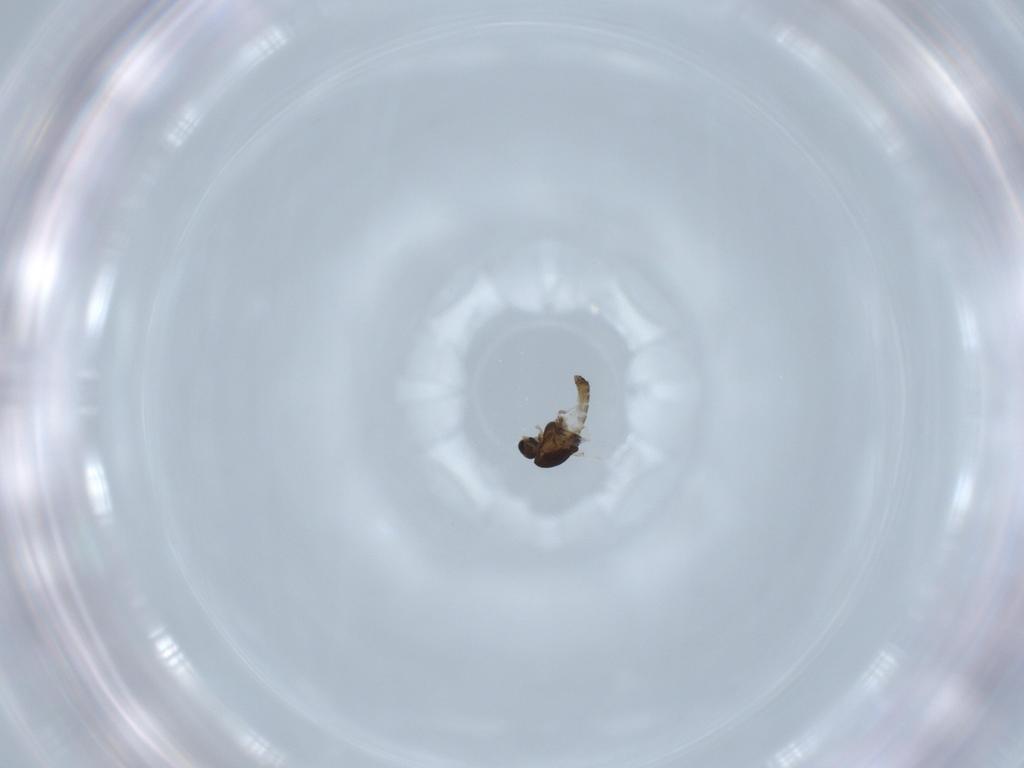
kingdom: Animalia
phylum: Arthropoda
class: Insecta
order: Diptera
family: Chironomidae
